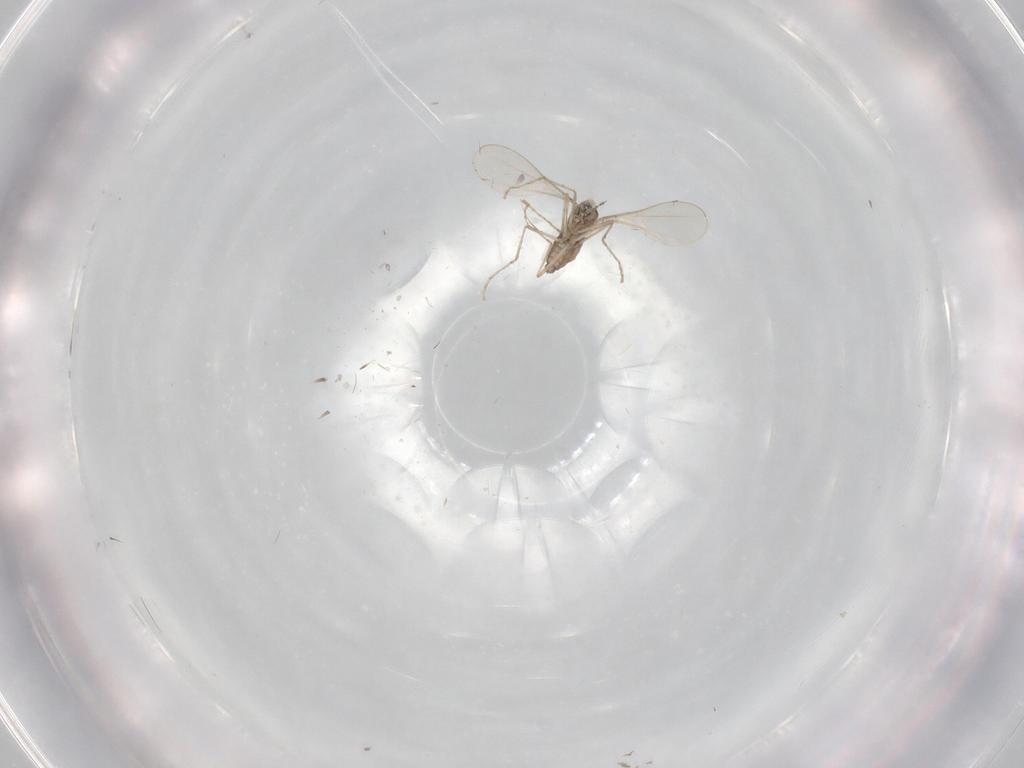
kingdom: Animalia
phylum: Arthropoda
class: Insecta
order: Diptera
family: Cecidomyiidae
